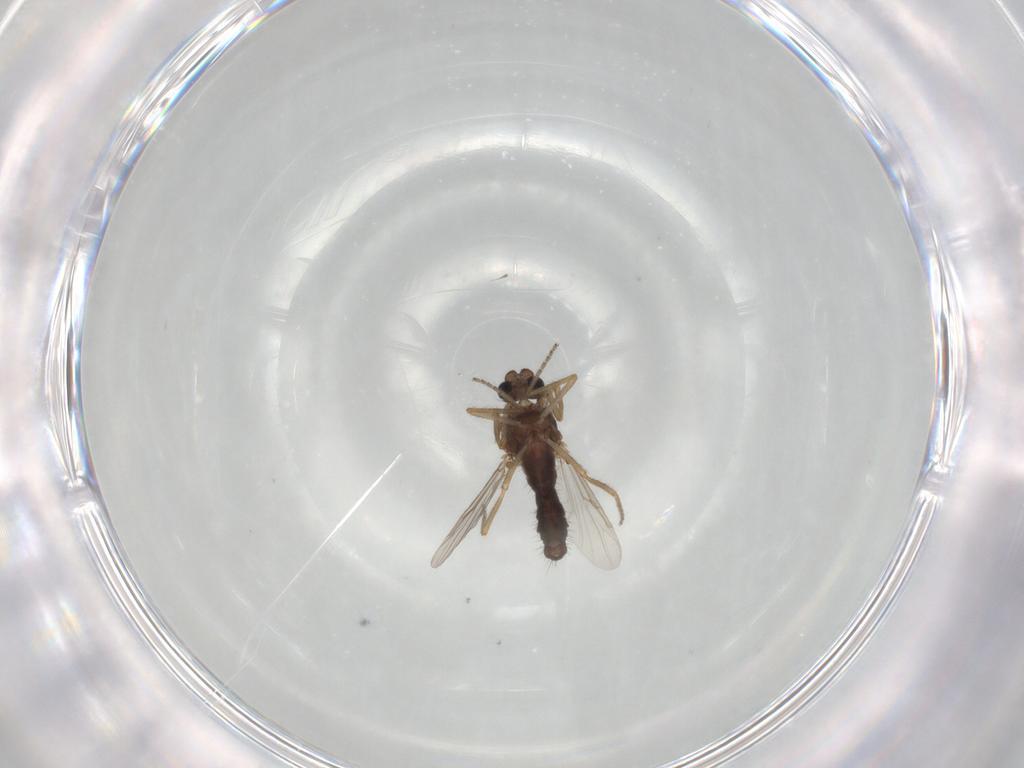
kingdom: Animalia
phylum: Arthropoda
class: Insecta
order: Diptera
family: Ceratopogonidae
